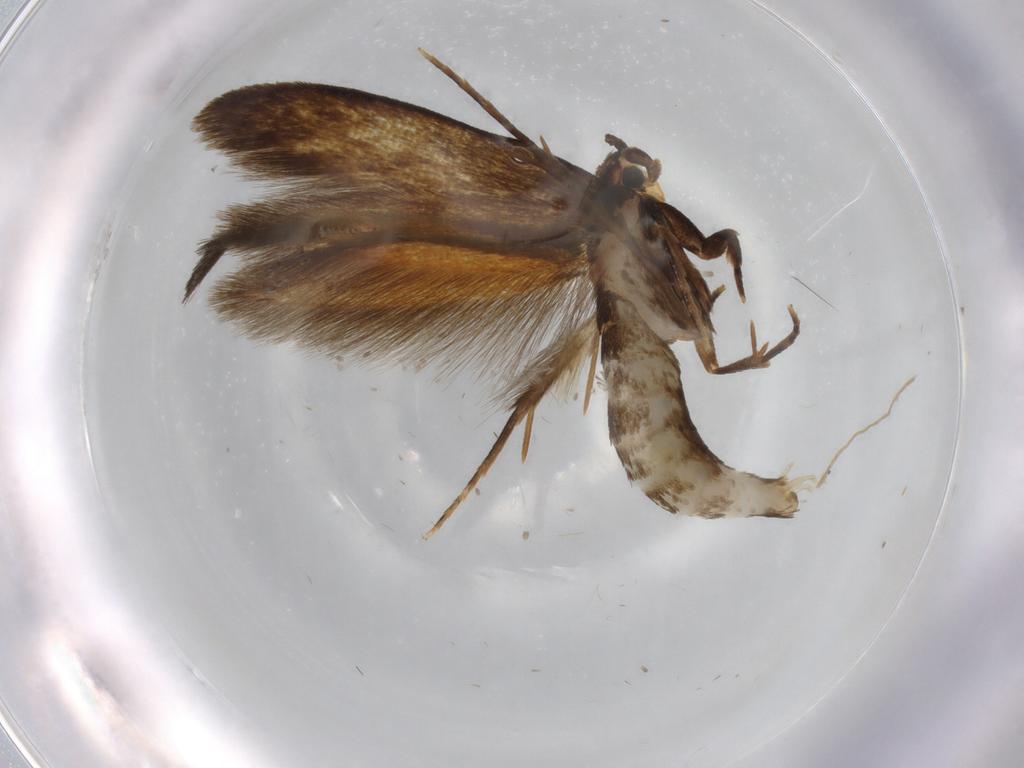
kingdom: Animalia
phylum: Arthropoda
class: Insecta
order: Lepidoptera
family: Tineidae
